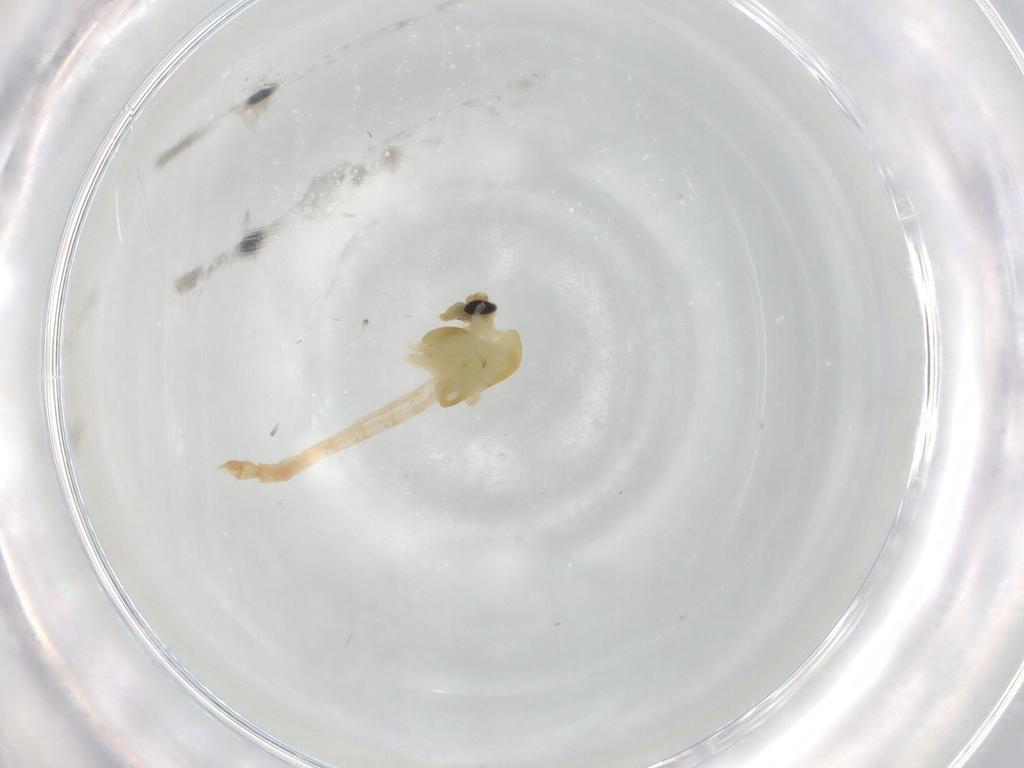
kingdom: Animalia
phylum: Arthropoda
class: Insecta
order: Diptera
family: Chironomidae
